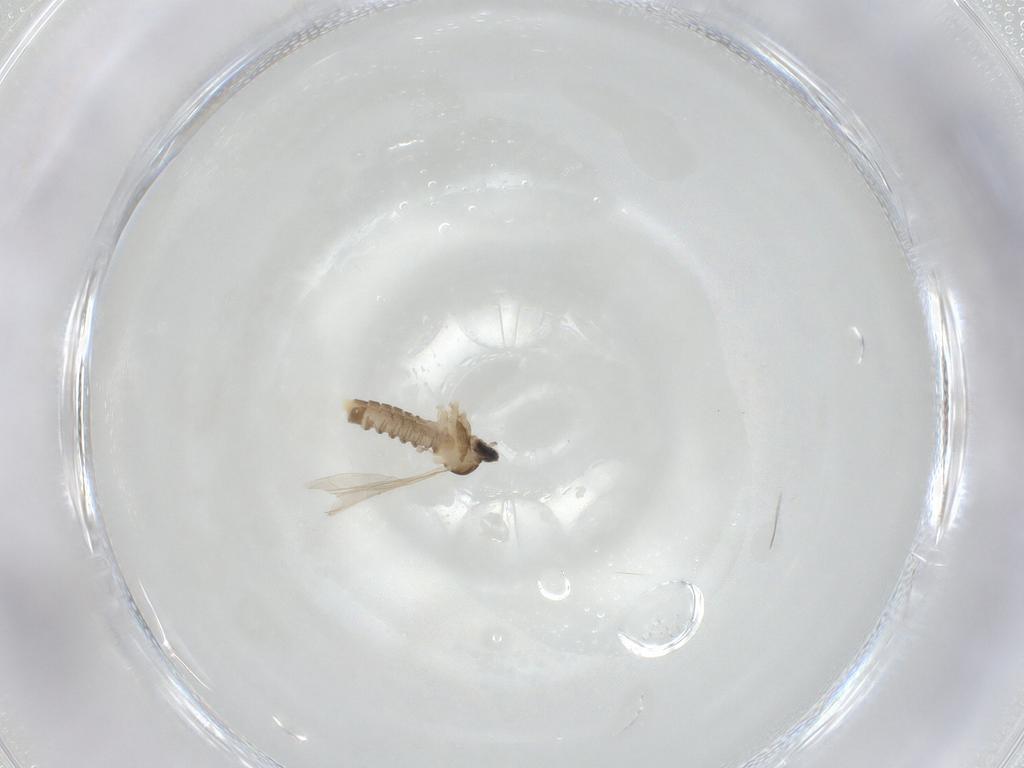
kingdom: Animalia
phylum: Arthropoda
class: Insecta
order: Diptera
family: Cecidomyiidae
